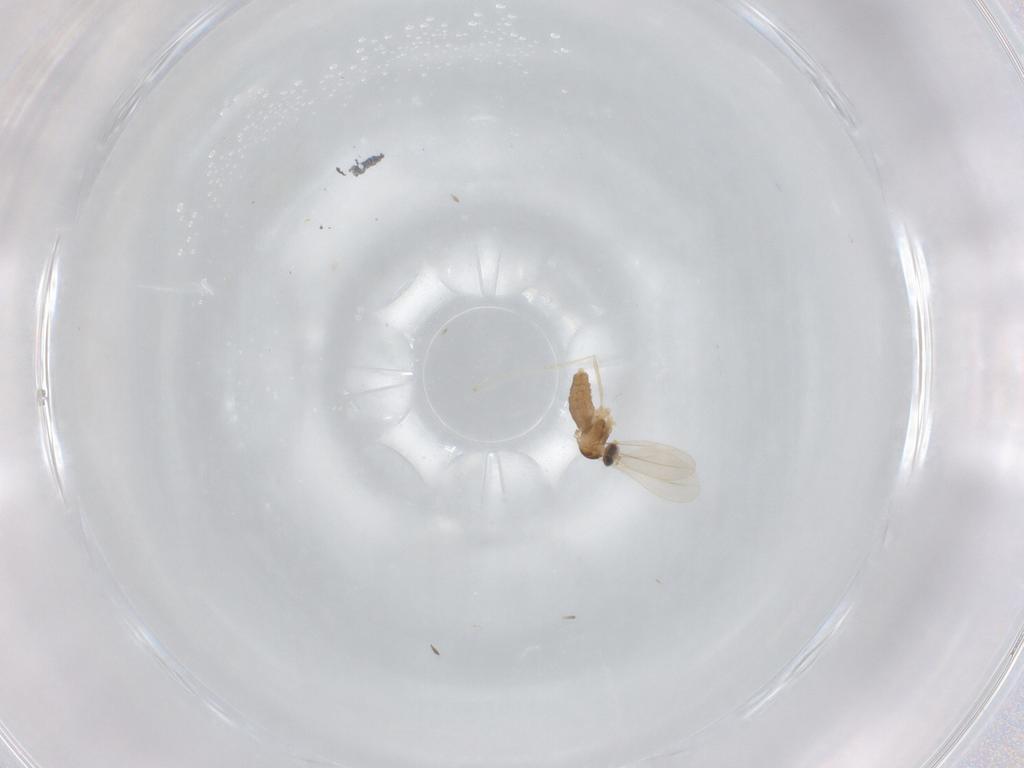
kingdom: Animalia
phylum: Arthropoda
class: Insecta
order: Diptera
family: Cecidomyiidae
